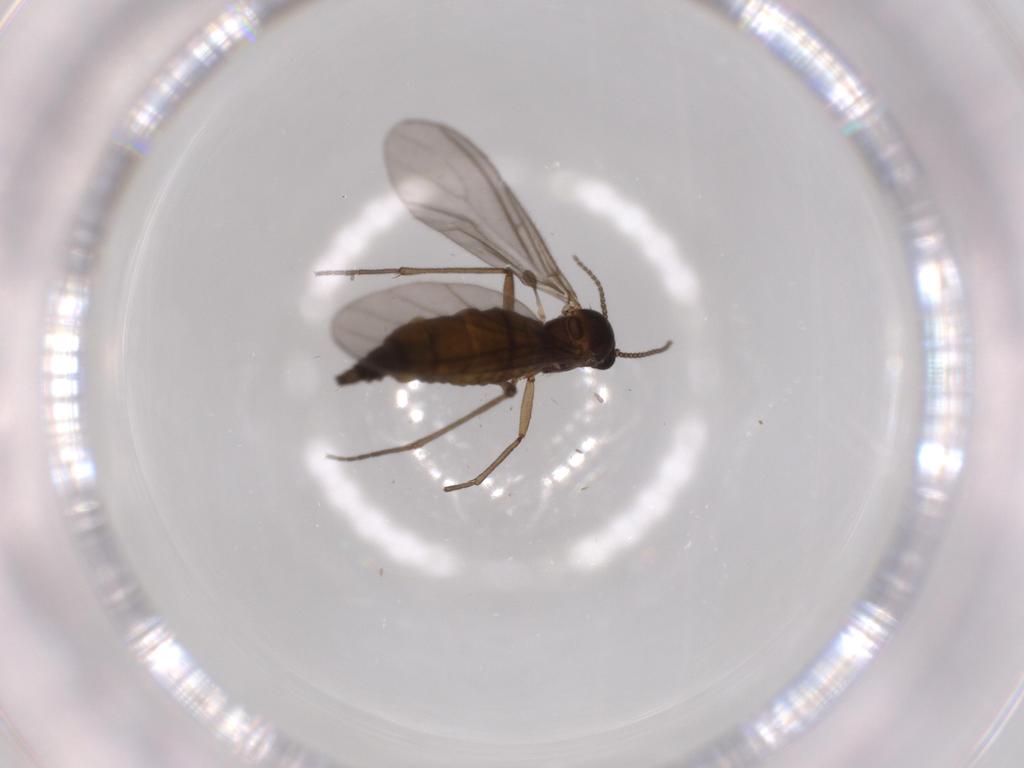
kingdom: Animalia
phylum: Arthropoda
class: Insecta
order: Diptera
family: Sciaridae
